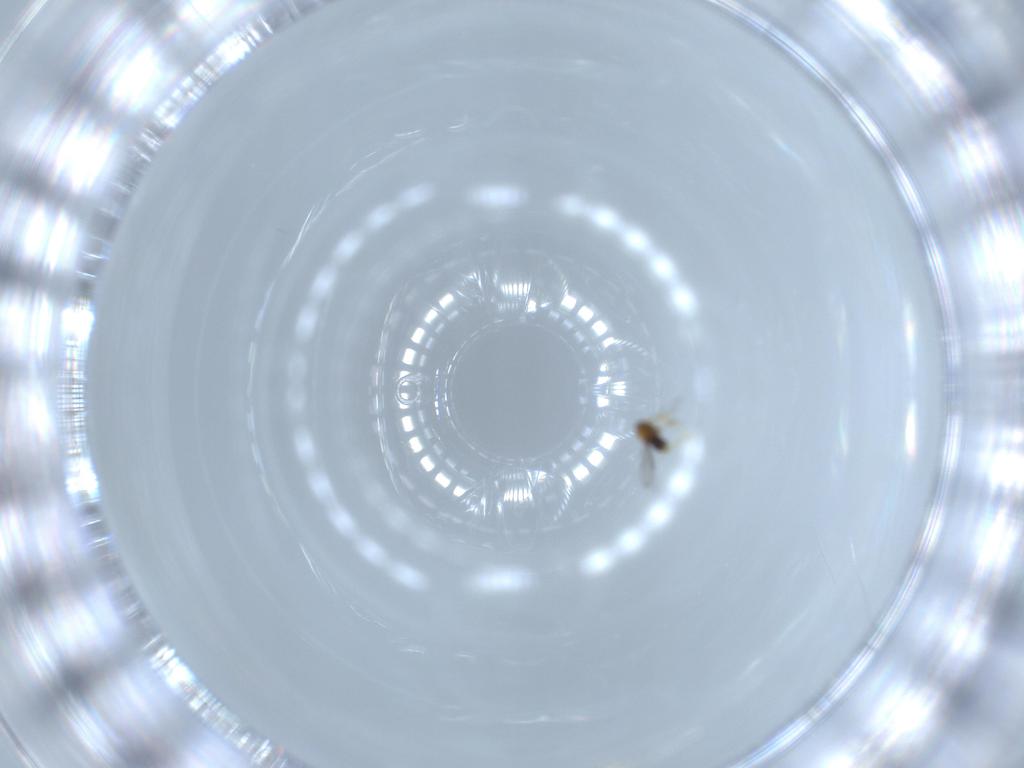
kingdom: Animalia
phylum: Arthropoda
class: Insecta
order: Hymenoptera
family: Aphelinidae
